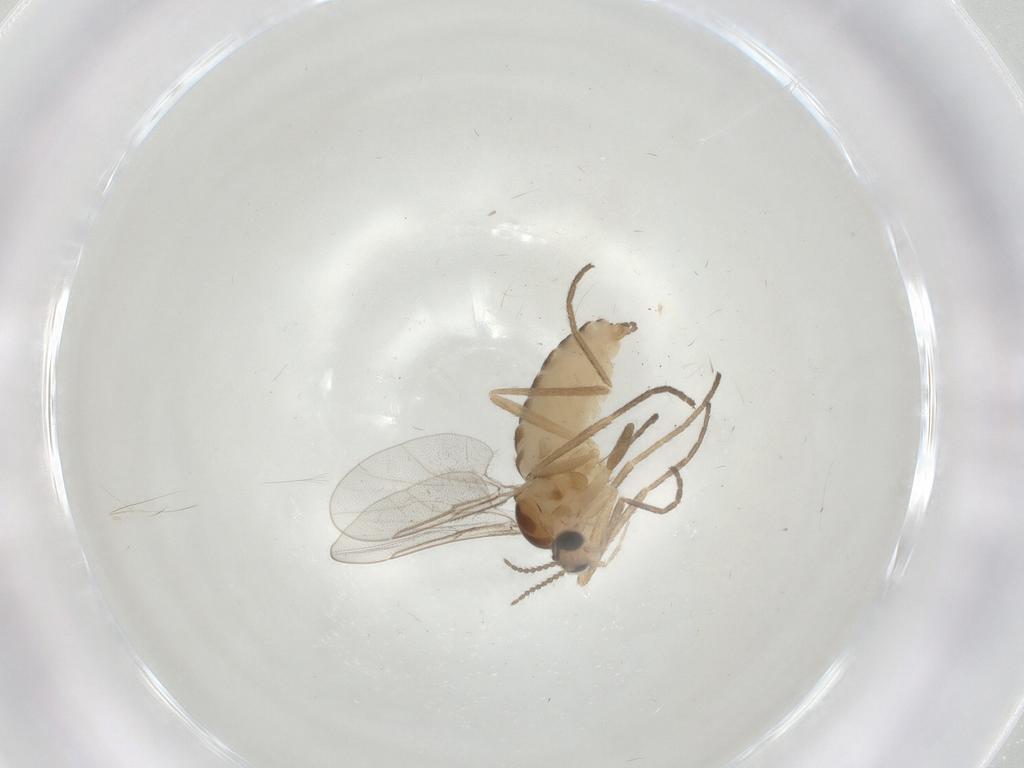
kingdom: Animalia
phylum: Arthropoda
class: Insecta
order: Diptera
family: Cecidomyiidae
